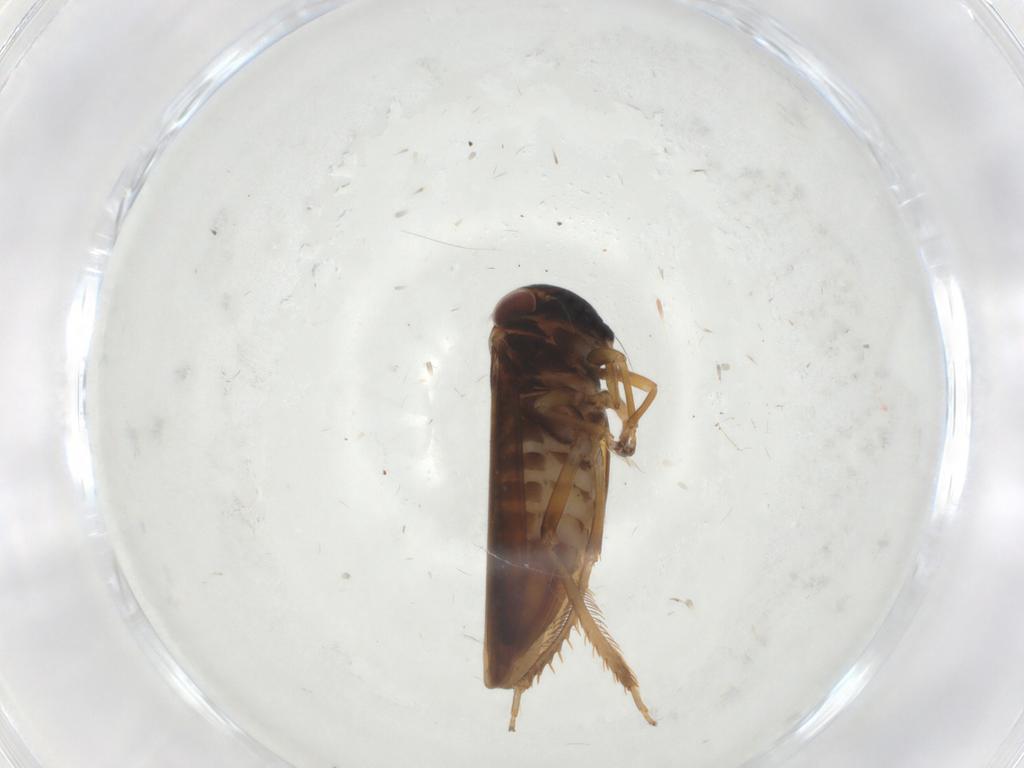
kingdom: Animalia
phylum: Arthropoda
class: Insecta
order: Hemiptera
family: Cicadellidae
